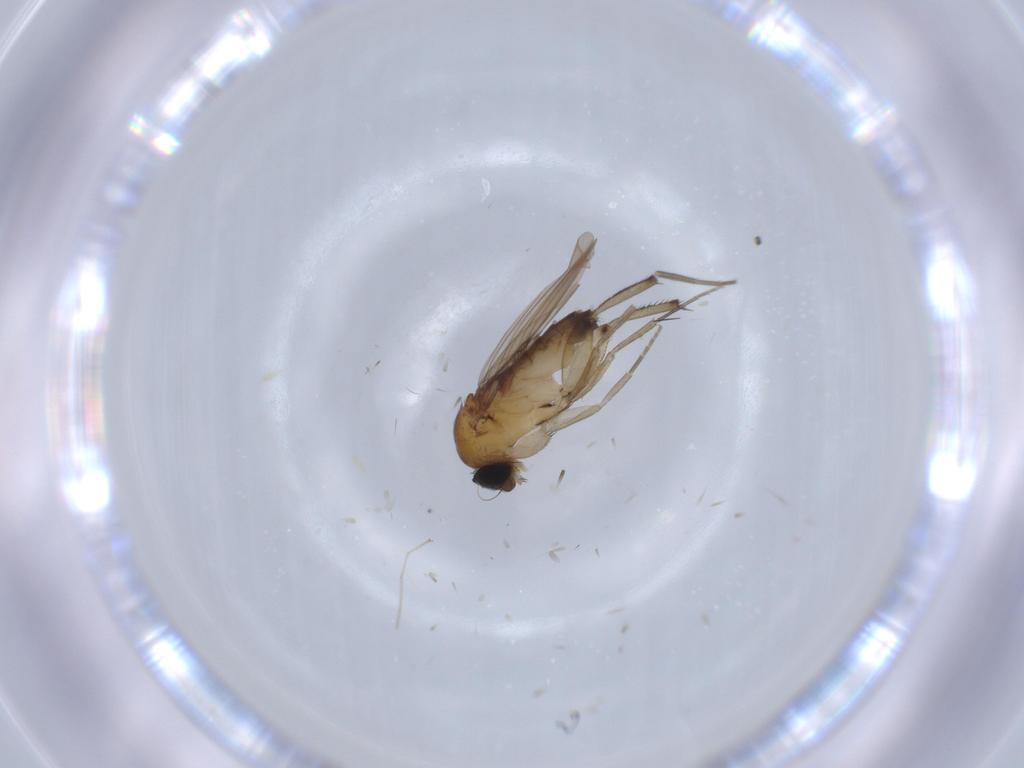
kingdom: Animalia
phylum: Arthropoda
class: Insecta
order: Diptera
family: Phoridae
